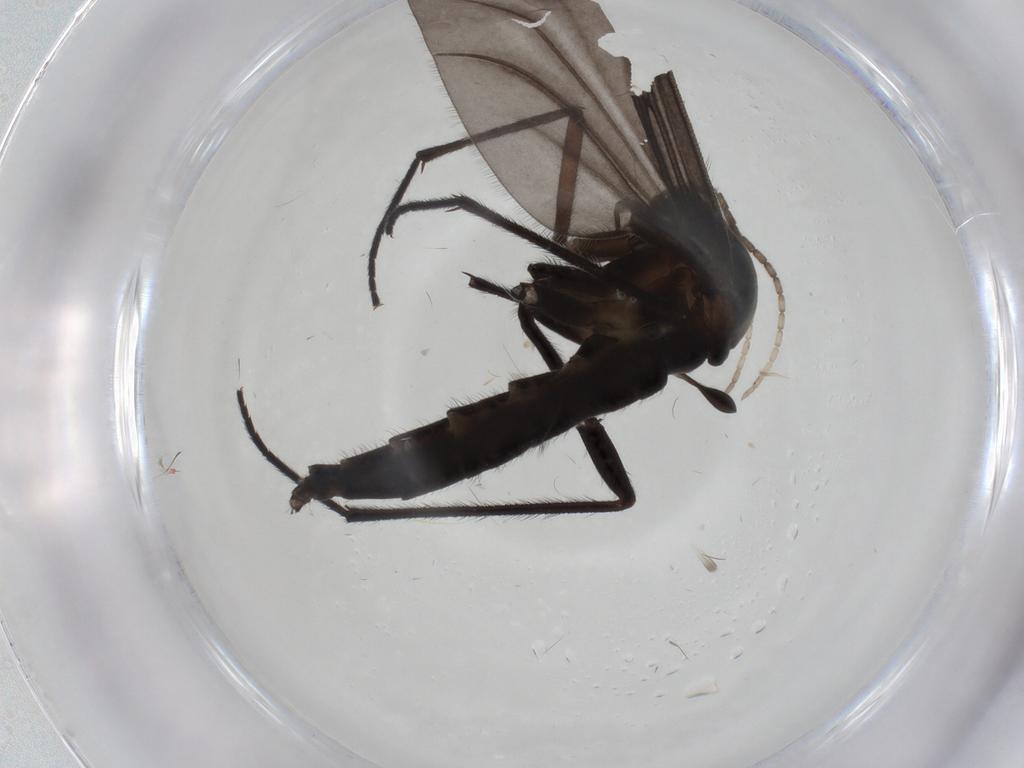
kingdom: Animalia
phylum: Arthropoda
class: Insecta
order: Diptera
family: Sciaridae
